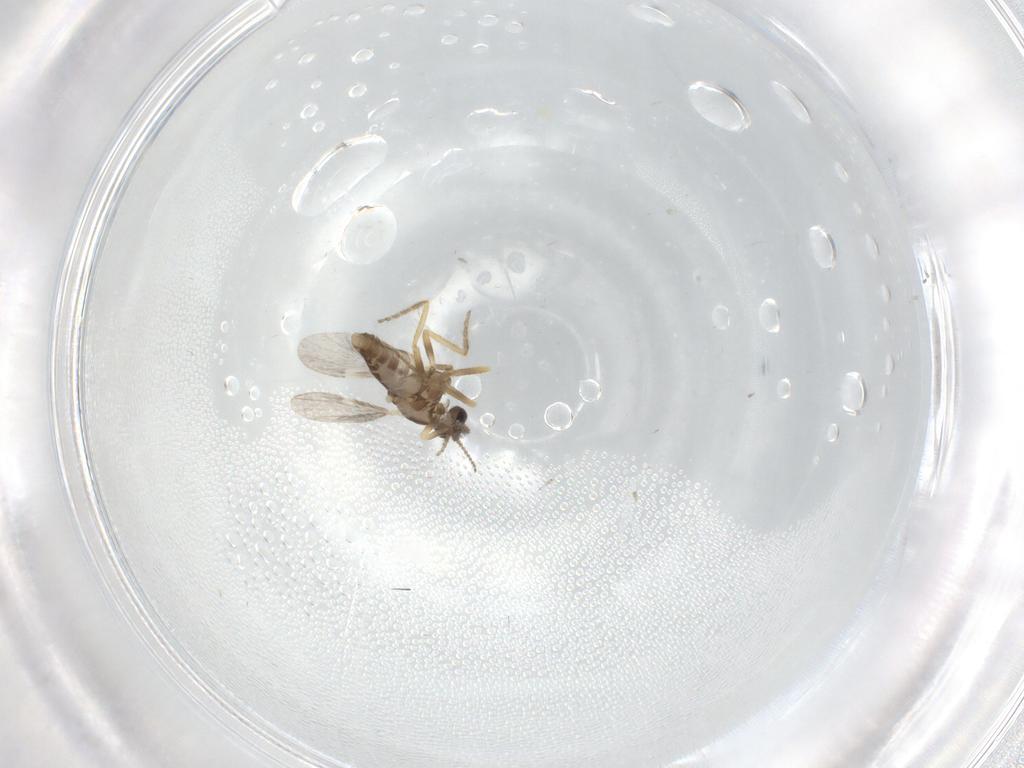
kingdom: Animalia
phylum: Arthropoda
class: Insecta
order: Diptera
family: Ceratopogonidae
